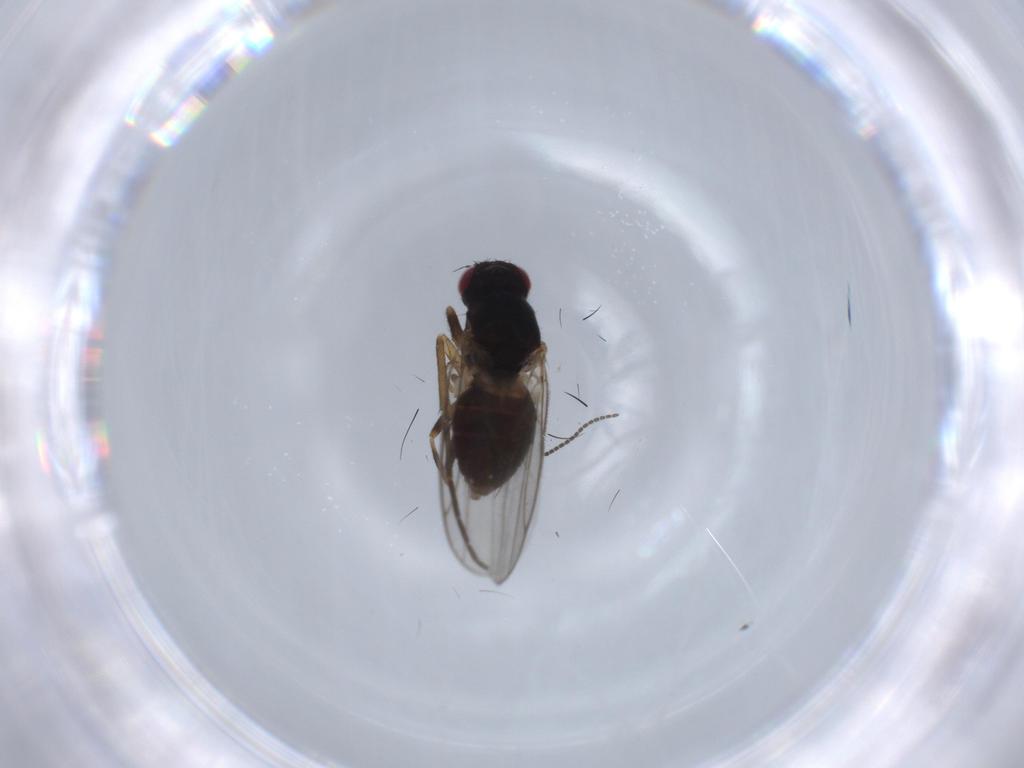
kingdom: Animalia
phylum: Arthropoda
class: Insecta
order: Diptera
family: Chloropidae
